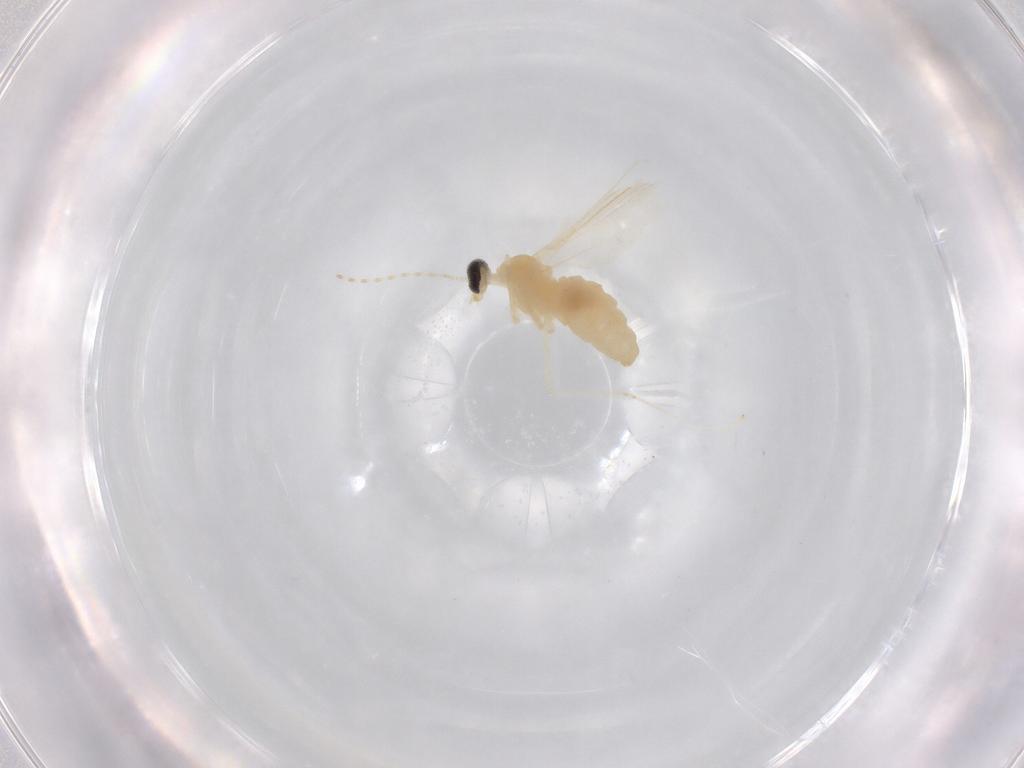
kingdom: Animalia
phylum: Arthropoda
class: Insecta
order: Diptera
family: Cecidomyiidae
